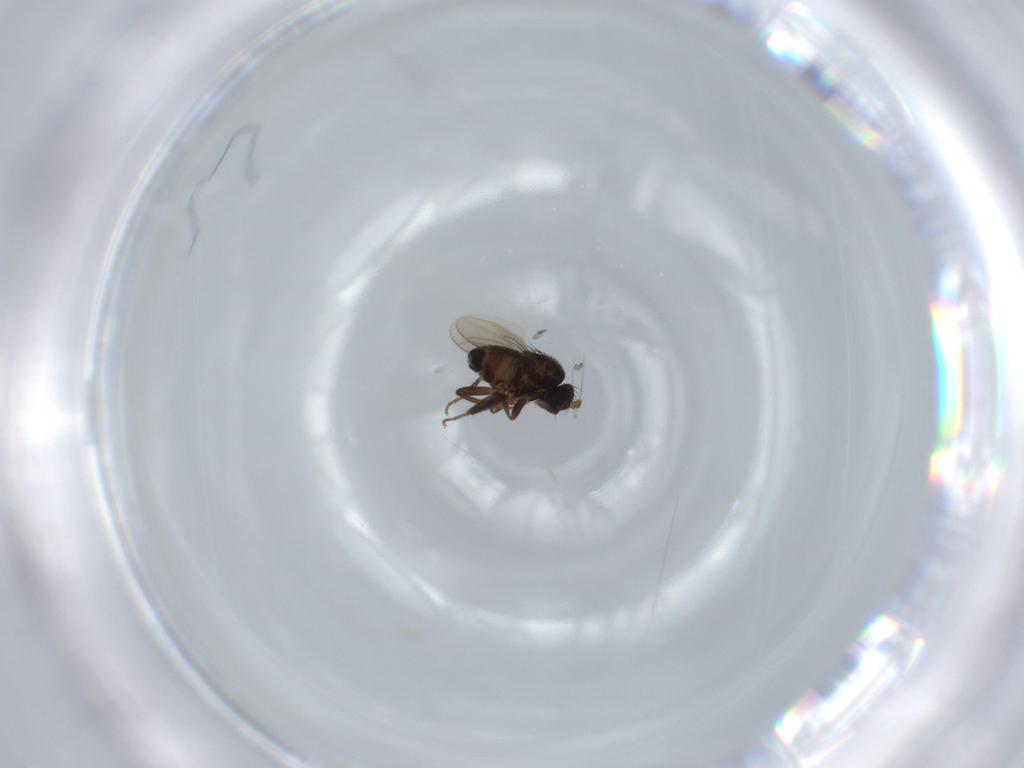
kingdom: Animalia
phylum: Arthropoda
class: Insecta
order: Diptera
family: Sphaeroceridae
